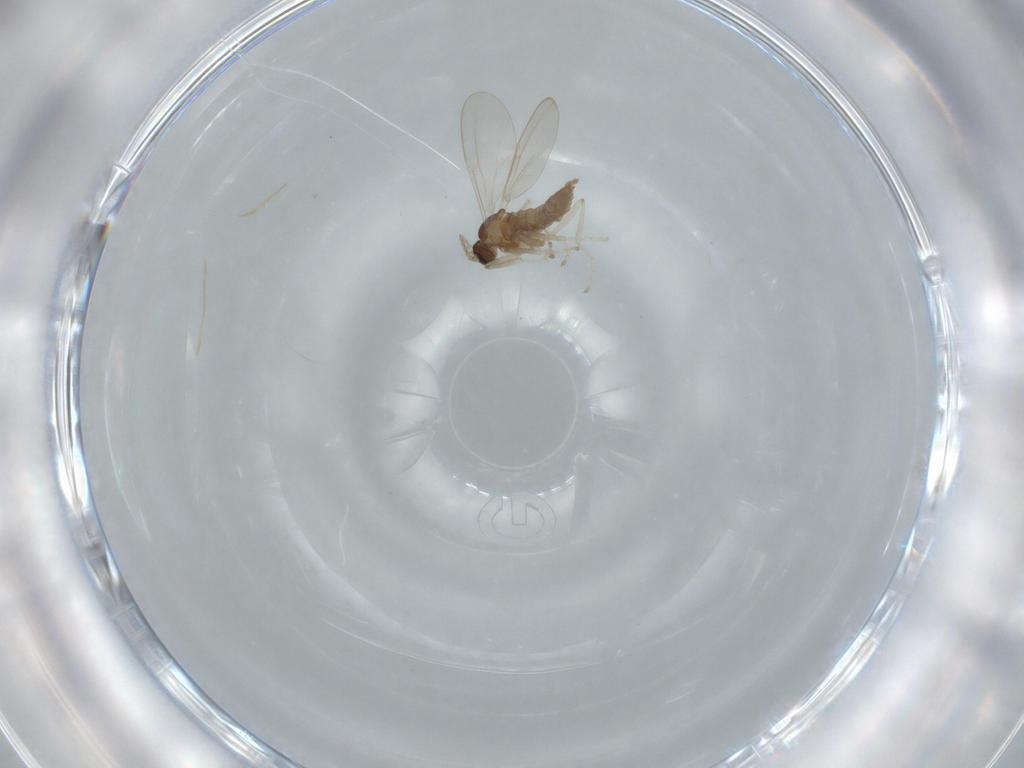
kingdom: Animalia
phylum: Arthropoda
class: Insecta
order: Diptera
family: Cecidomyiidae
